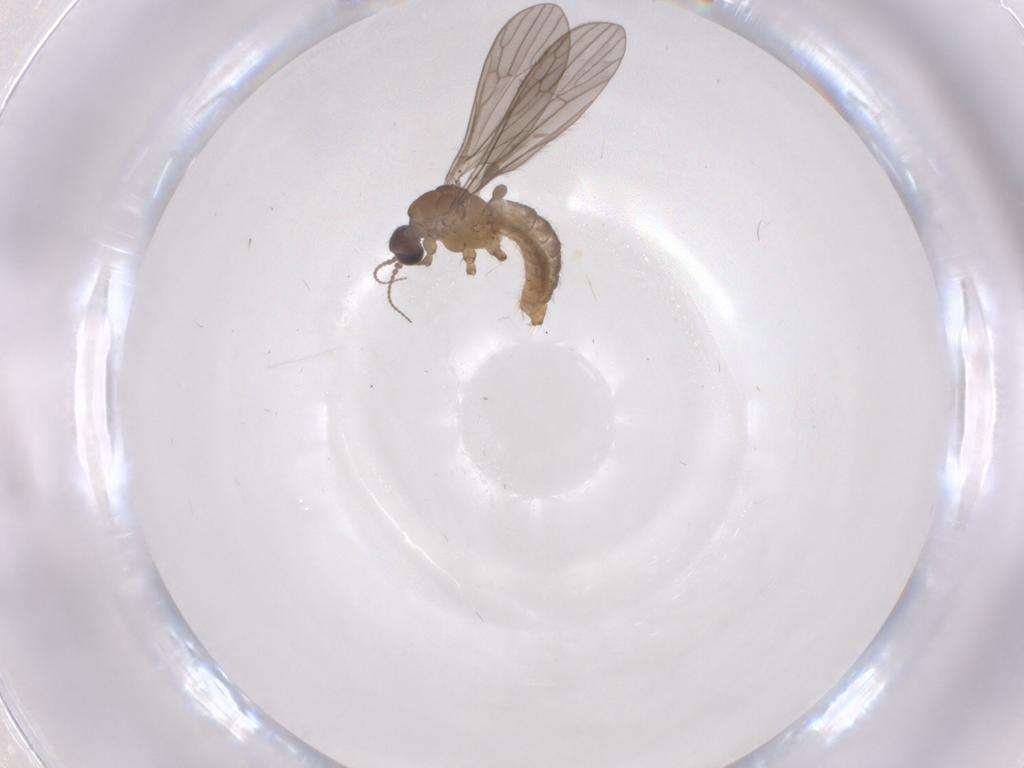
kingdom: Animalia
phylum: Arthropoda
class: Insecta
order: Diptera
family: Limoniidae
